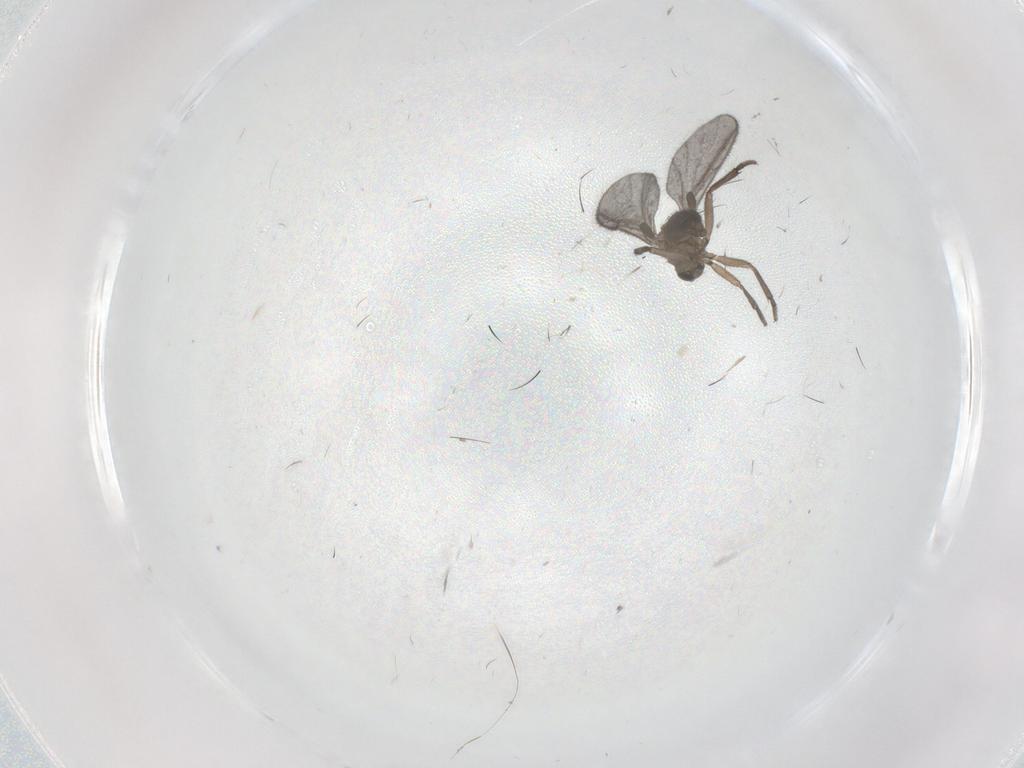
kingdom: Animalia
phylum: Arthropoda
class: Insecta
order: Diptera
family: Sciaridae
